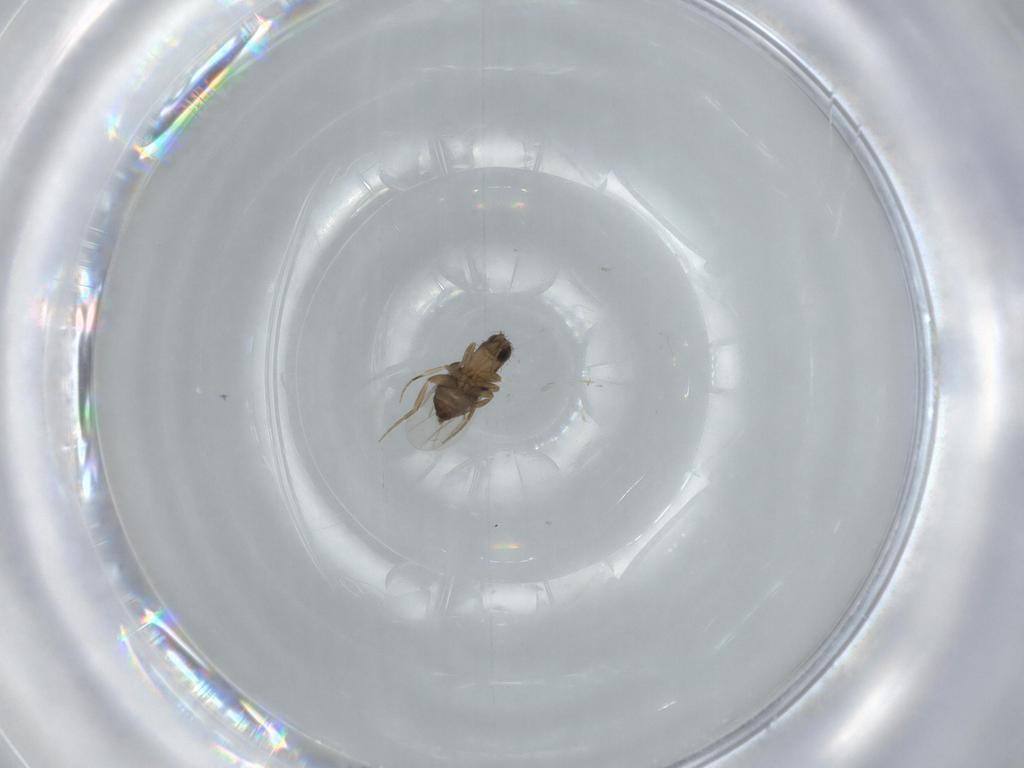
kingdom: Animalia
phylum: Arthropoda
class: Insecta
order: Diptera
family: Phoridae
